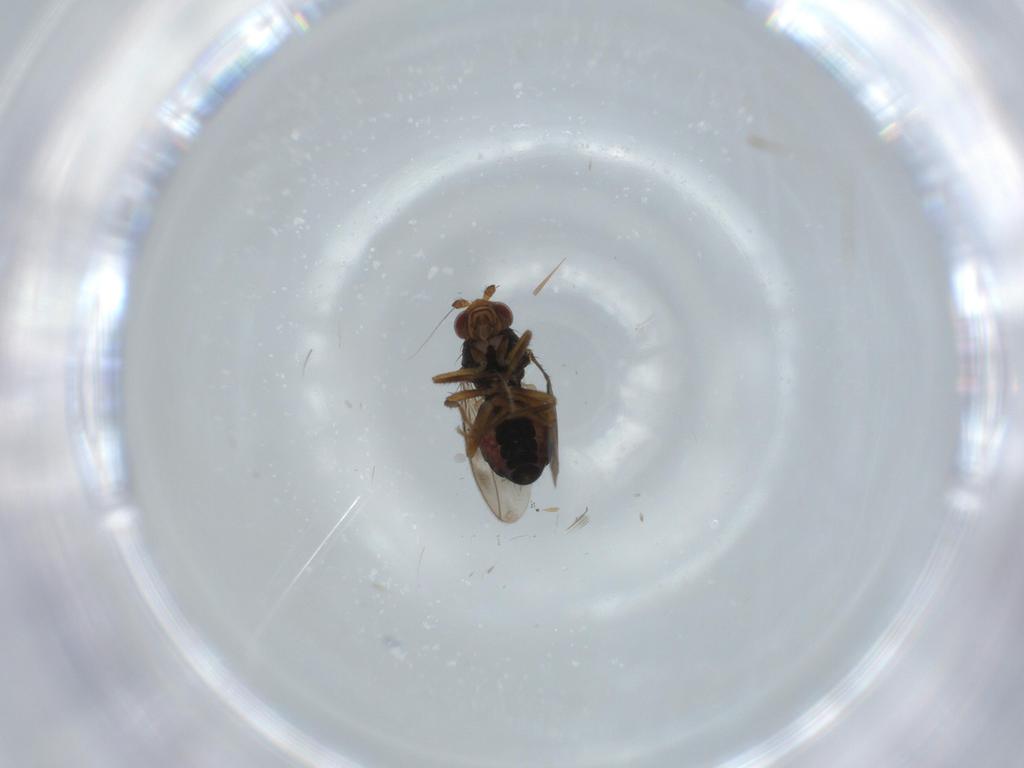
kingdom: Animalia
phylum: Arthropoda
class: Insecta
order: Diptera
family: Sphaeroceridae
